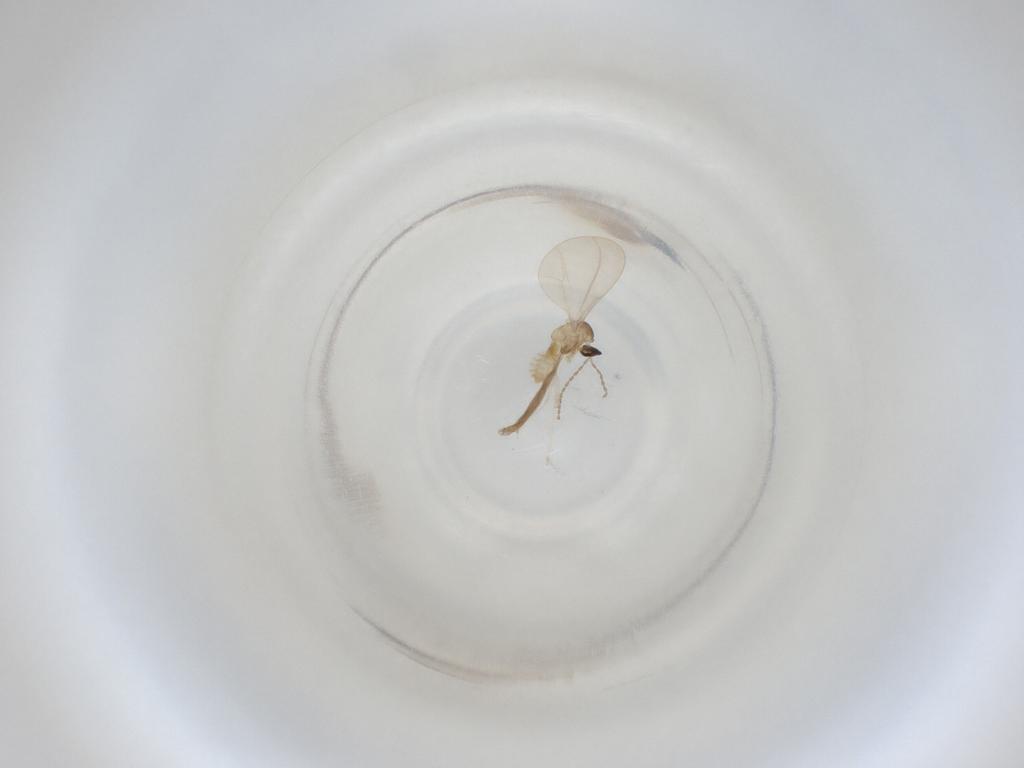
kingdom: Animalia
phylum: Arthropoda
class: Insecta
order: Diptera
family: Cecidomyiidae
